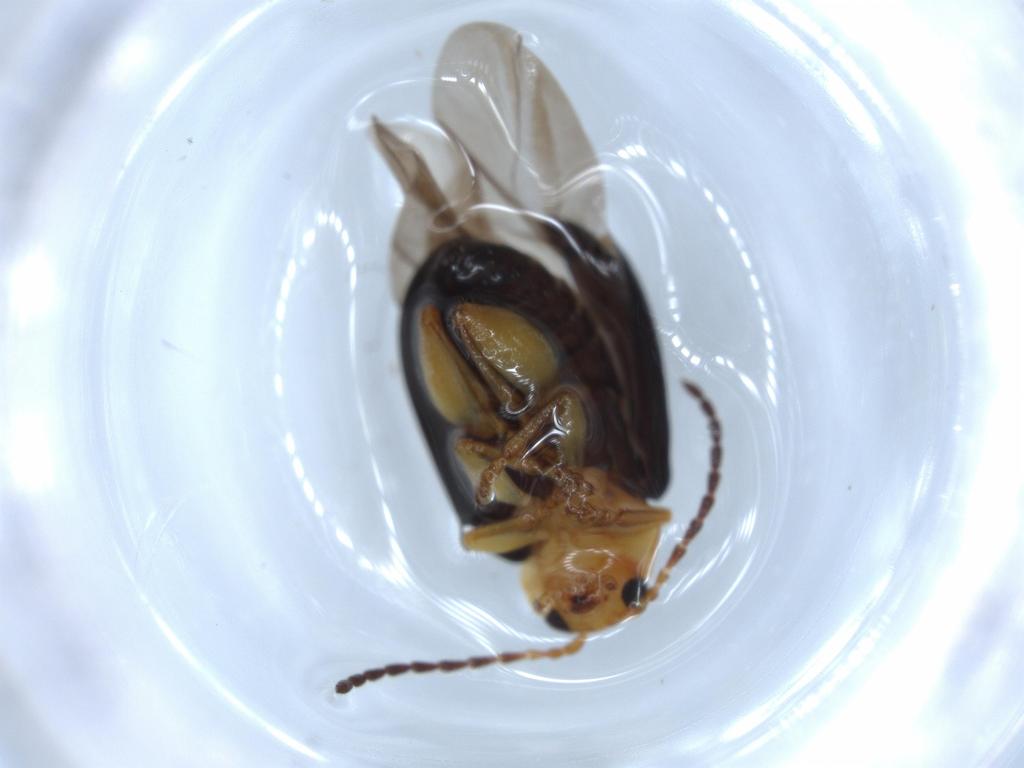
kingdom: Animalia
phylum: Arthropoda
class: Insecta
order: Coleoptera
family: Chrysomelidae
